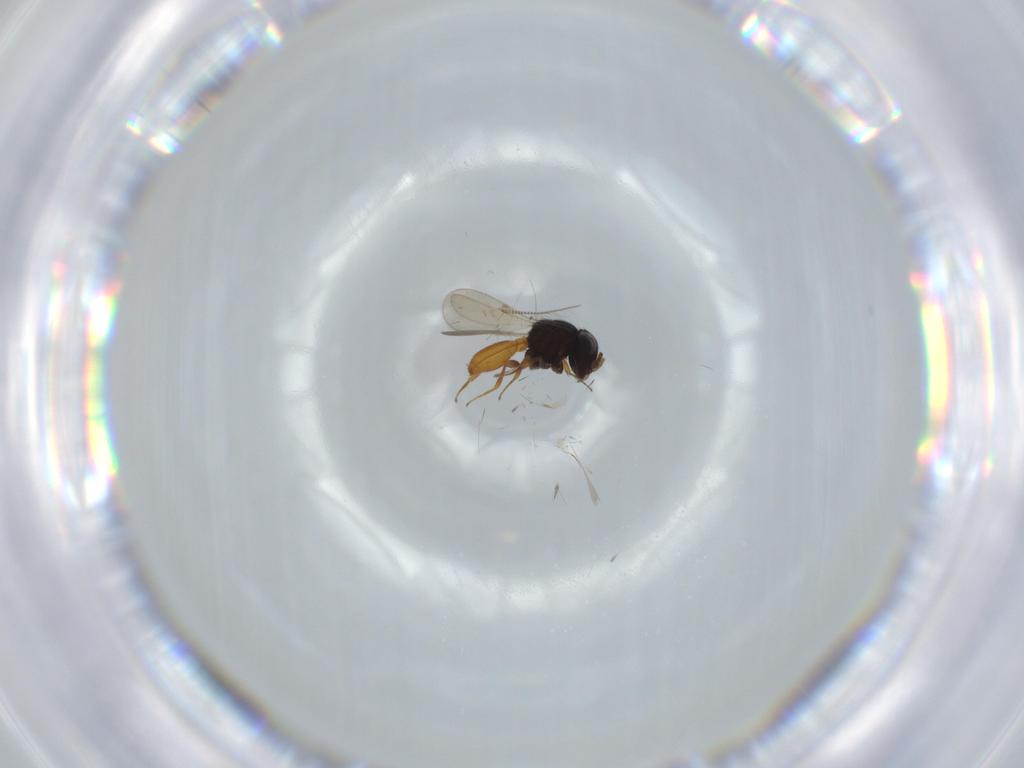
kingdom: Animalia
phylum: Arthropoda
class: Insecta
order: Hymenoptera
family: Scelionidae
